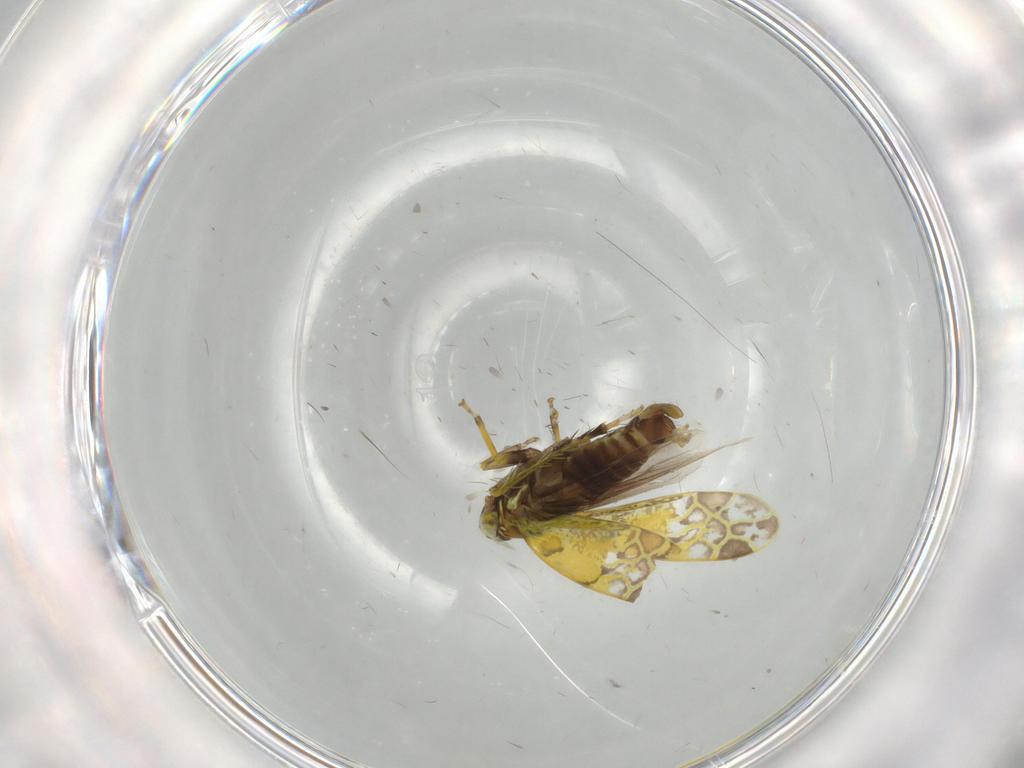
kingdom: Animalia
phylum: Arthropoda
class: Insecta
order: Hemiptera
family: Cicadellidae
